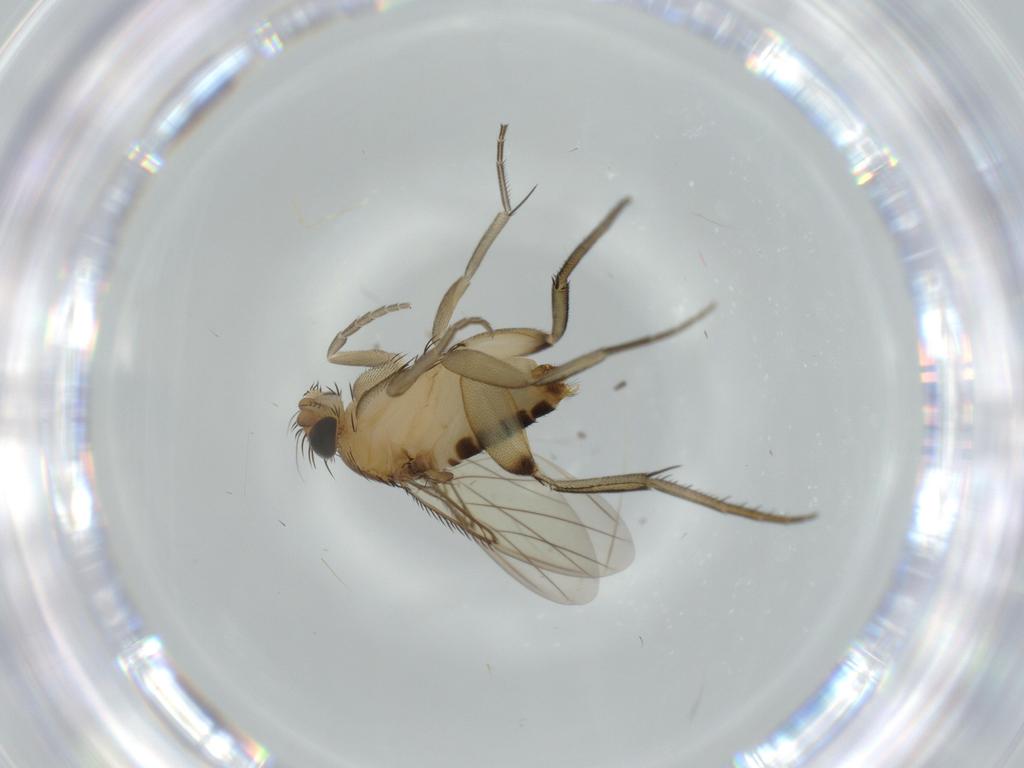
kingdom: Animalia
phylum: Arthropoda
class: Insecta
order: Diptera
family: Phoridae
